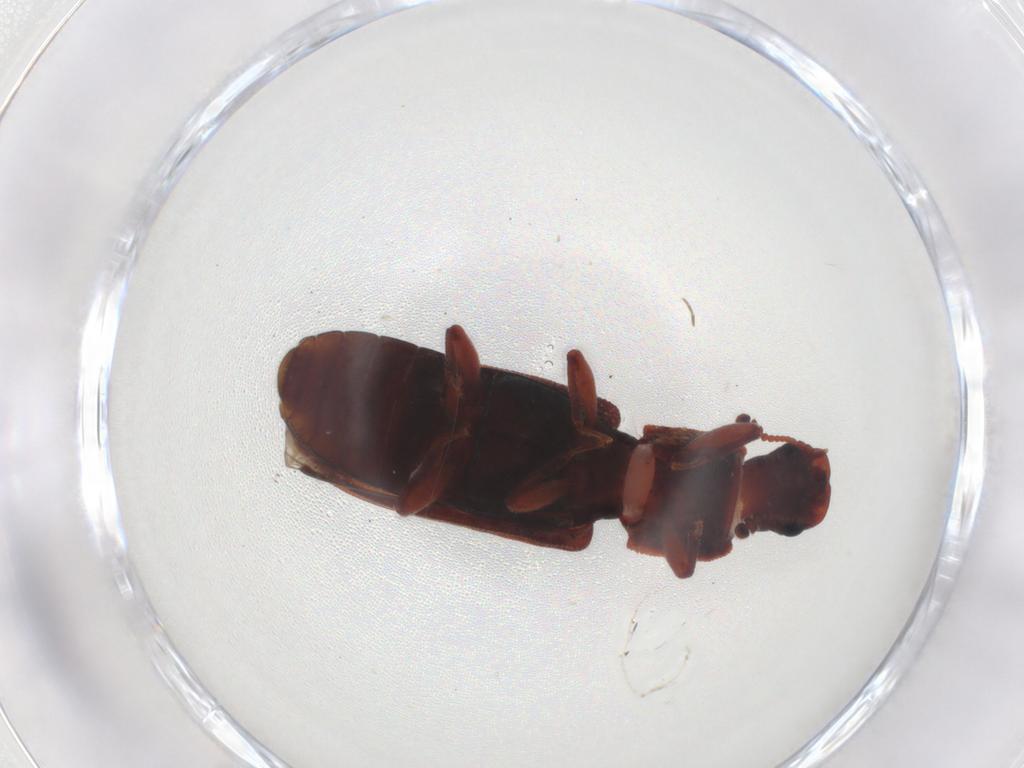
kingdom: Animalia
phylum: Arthropoda
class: Insecta
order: Coleoptera
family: Zopheridae
